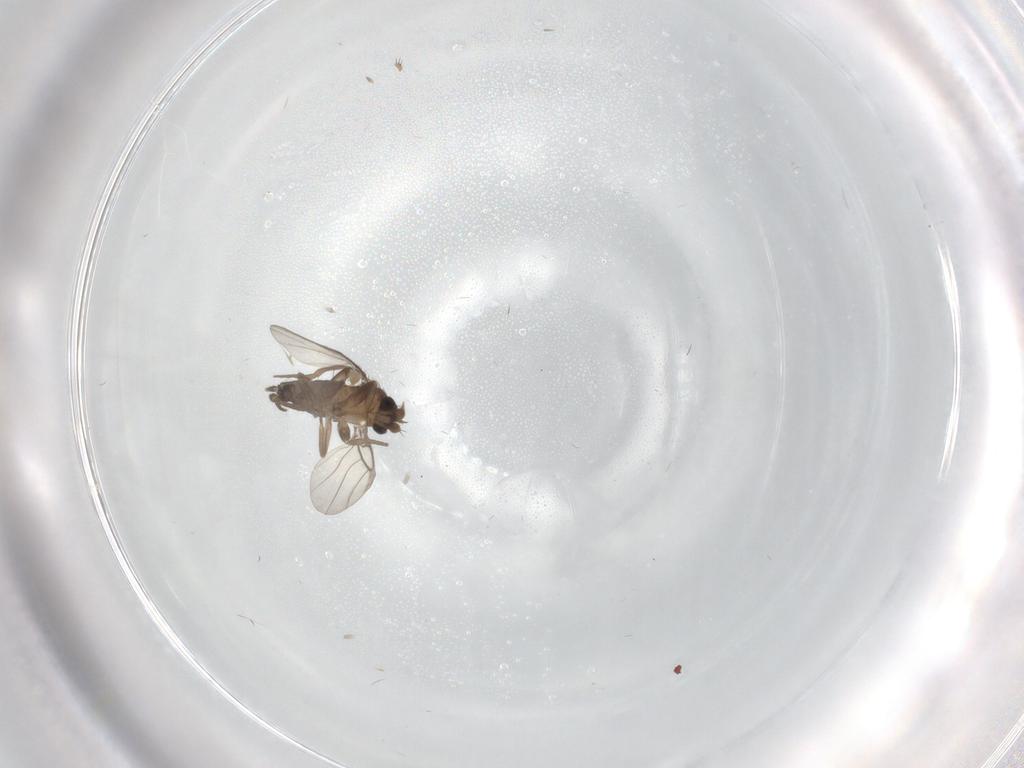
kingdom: Animalia
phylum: Arthropoda
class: Insecta
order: Diptera
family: Phoridae
